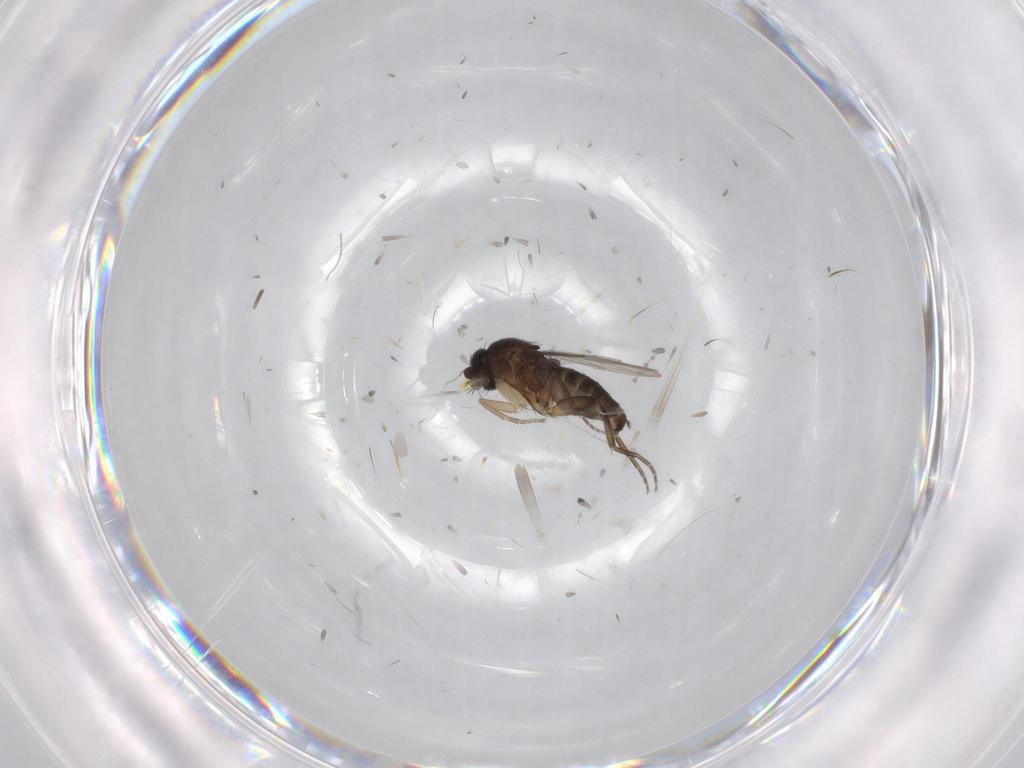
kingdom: Animalia
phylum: Arthropoda
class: Insecta
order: Diptera
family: Phoridae
